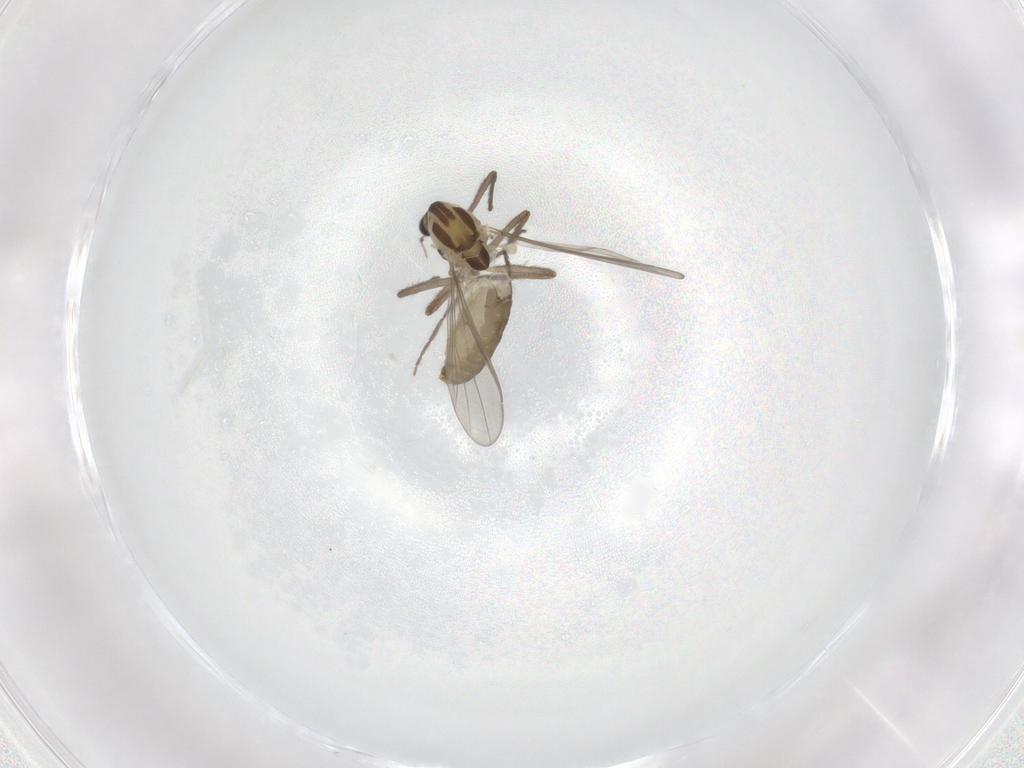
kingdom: Animalia
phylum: Arthropoda
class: Insecta
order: Diptera
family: Chironomidae
